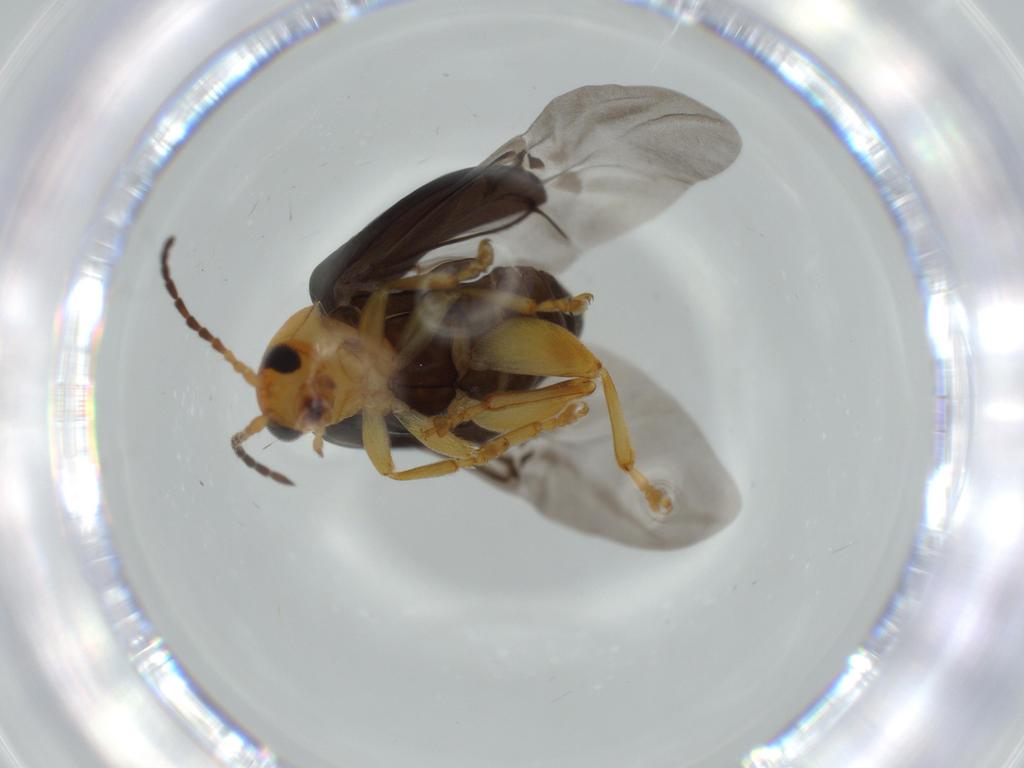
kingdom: Animalia
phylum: Arthropoda
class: Insecta
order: Coleoptera
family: Chrysomelidae
